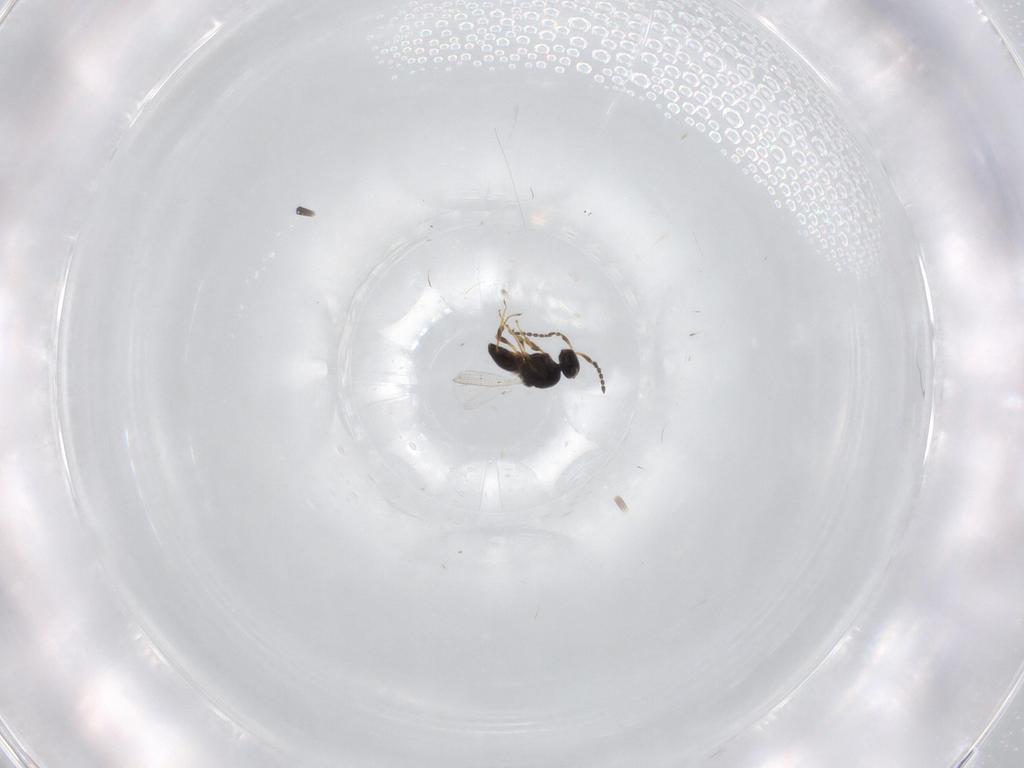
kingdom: Animalia
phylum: Arthropoda
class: Insecta
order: Hymenoptera
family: Platygastridae
